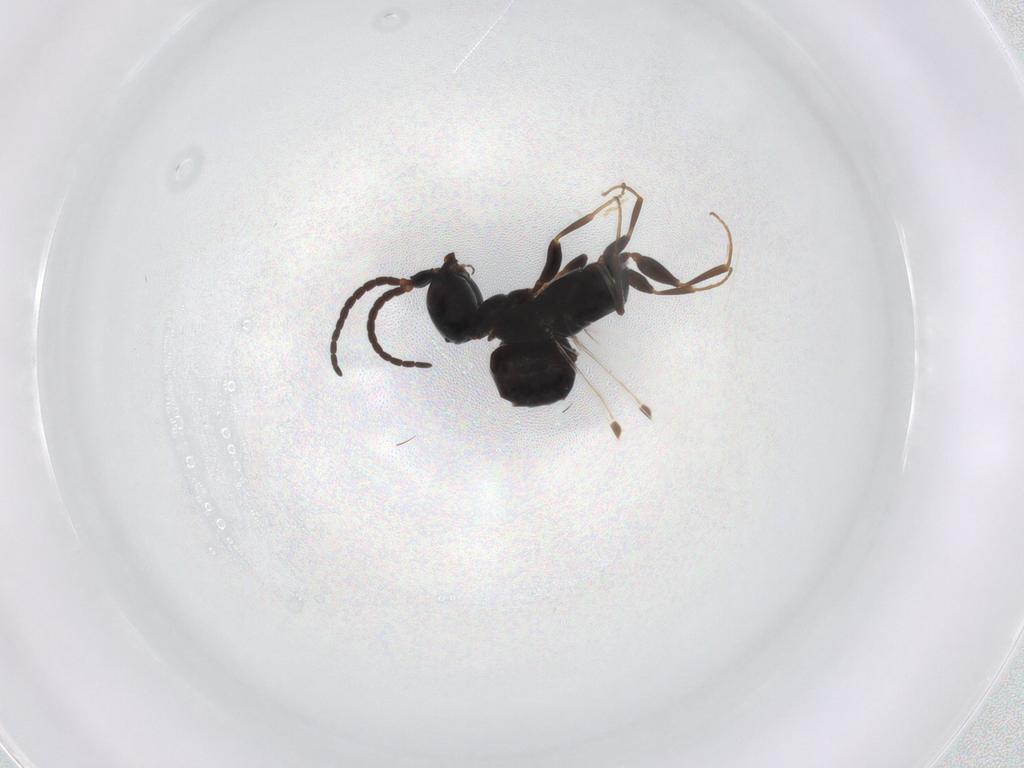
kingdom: Animalia
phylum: Arthropoda
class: Insecta
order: Hymenoptera
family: Bethylidae
